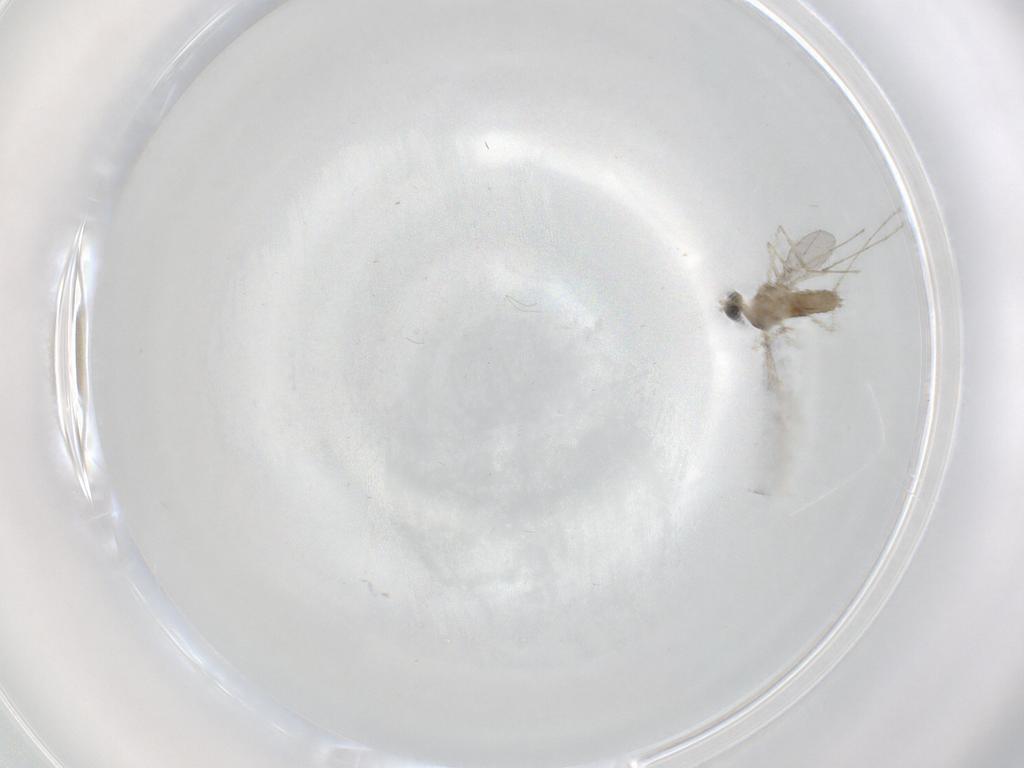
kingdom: Animalia
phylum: Arthropoda
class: Insecta
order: Diptera
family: Cecidomyiidae
